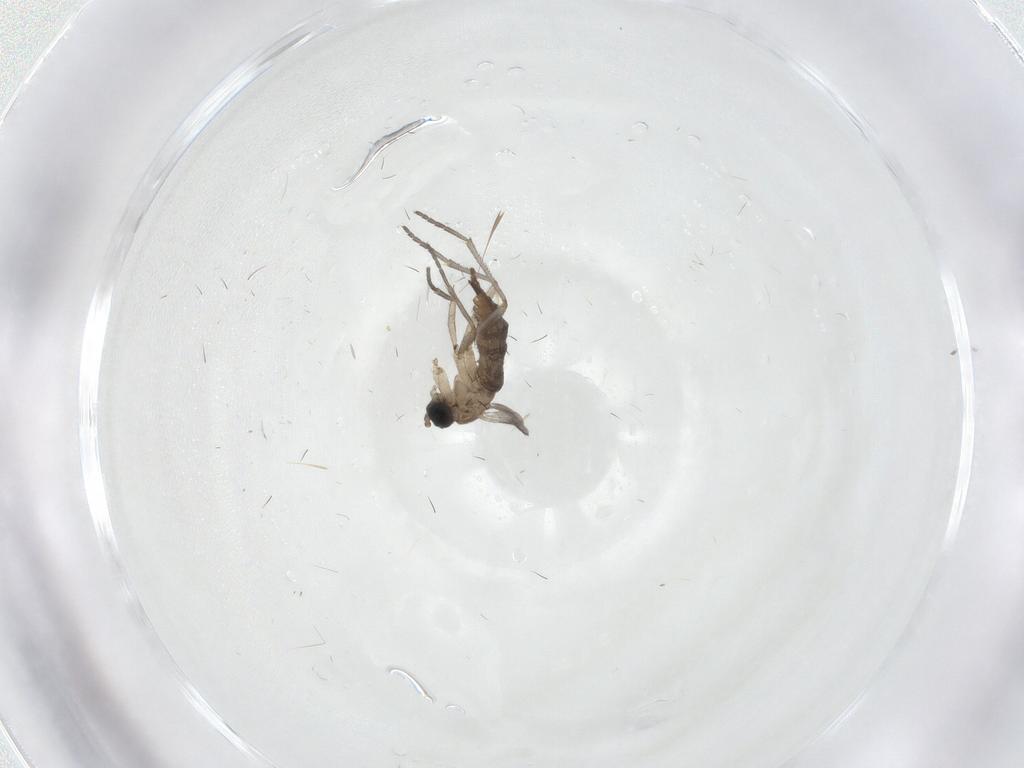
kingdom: Animalia
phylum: Arthropoda
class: Insecta
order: Diptera
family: Sciaridae
